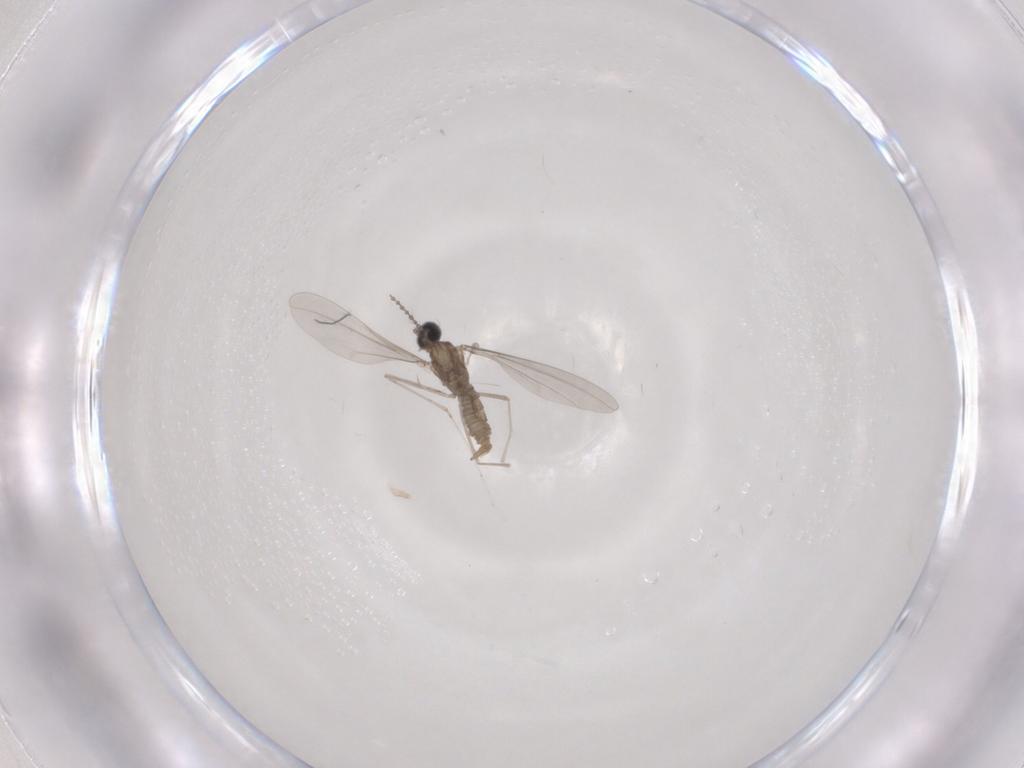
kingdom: Animalia
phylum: Arthropoda
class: Insecta
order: Diptera
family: Cecidomyiidae
